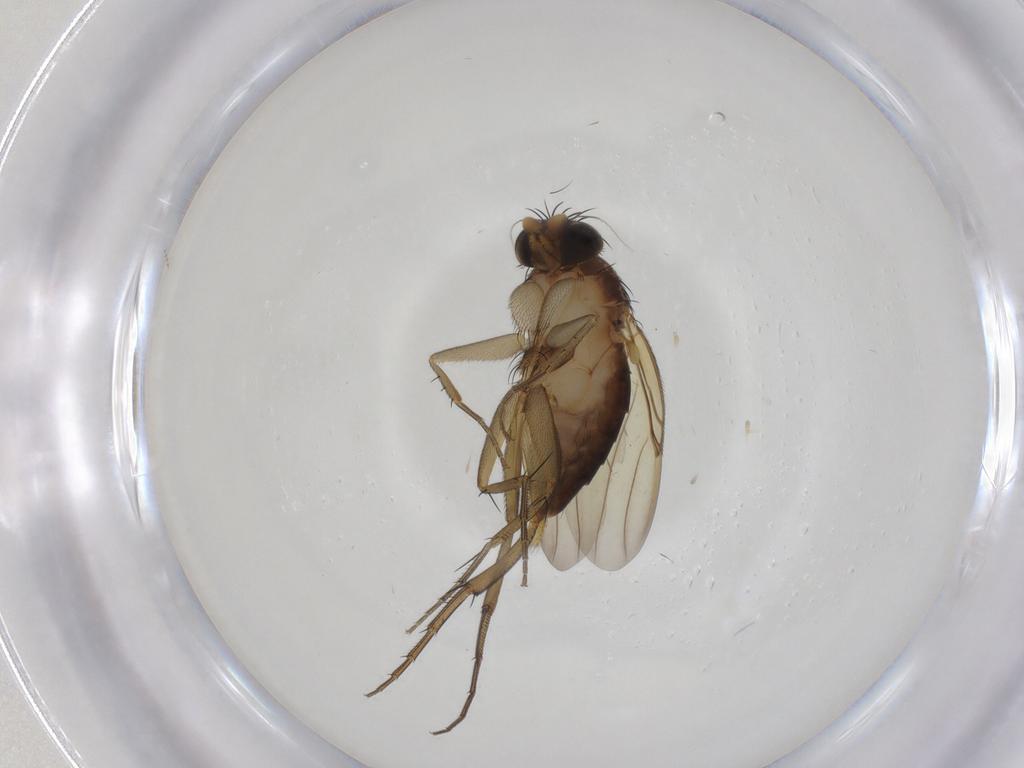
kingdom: Animalia
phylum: Arthropoda
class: Insecta
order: Diptera
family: Phoridae
